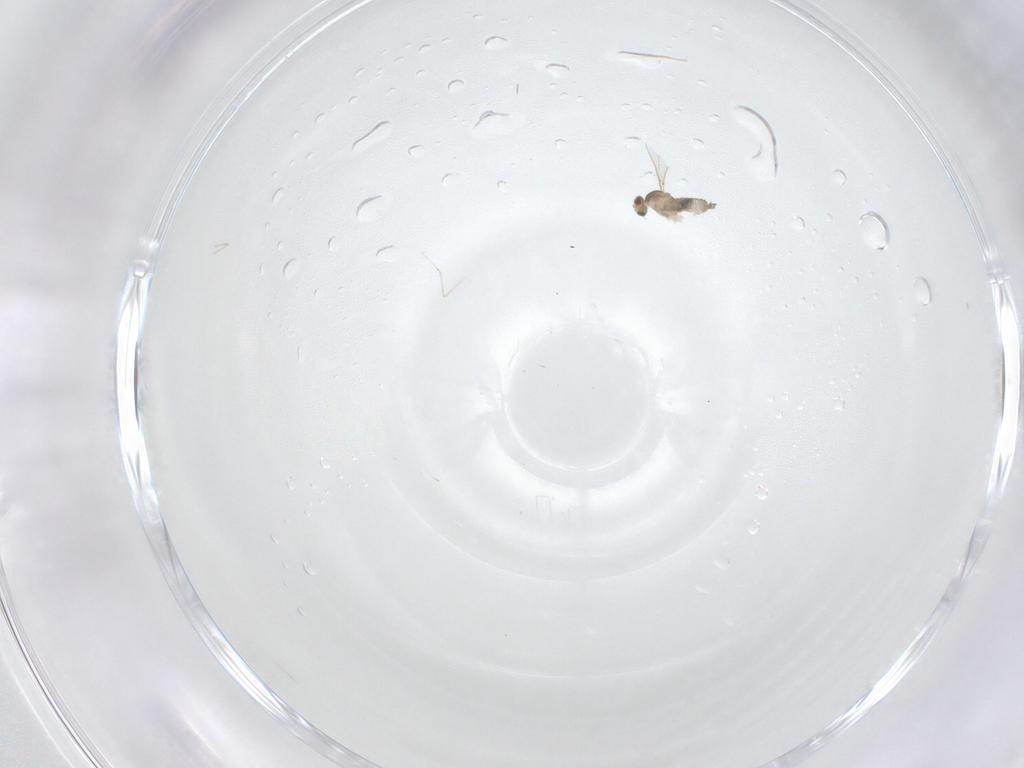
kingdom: Animalia
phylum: Arthropoda
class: Insecta
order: Diptera
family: Cecidomyiidae
